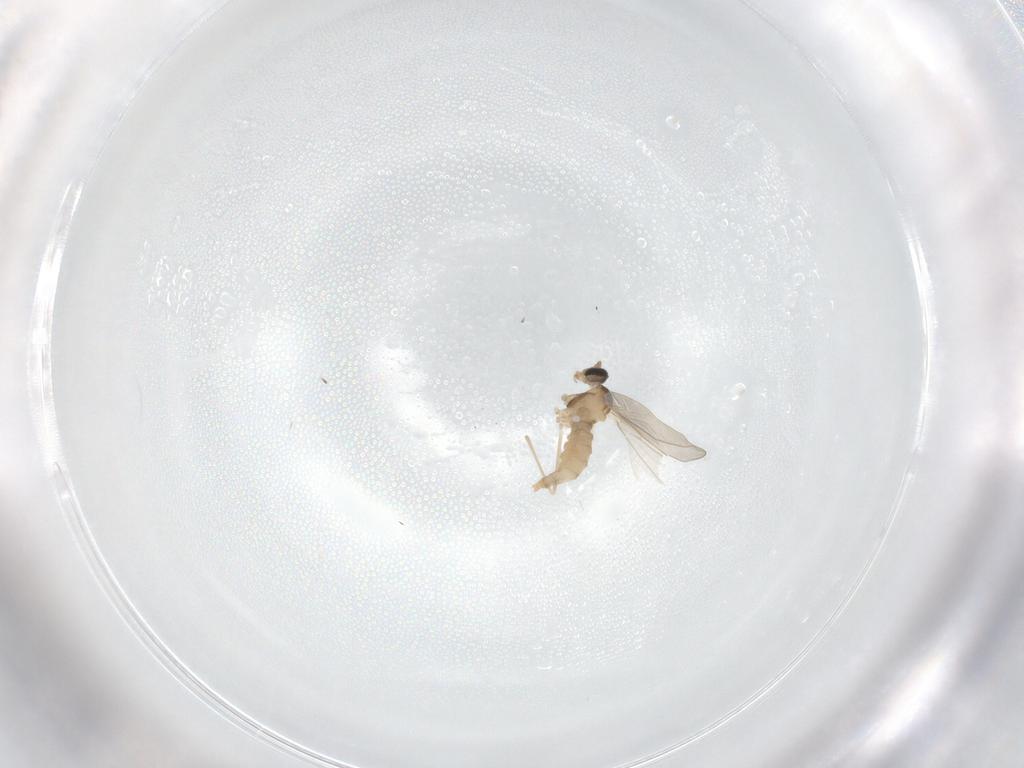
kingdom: Animalia
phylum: Arthropoda
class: Insecta
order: Diptera
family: Cecidomyiidae
